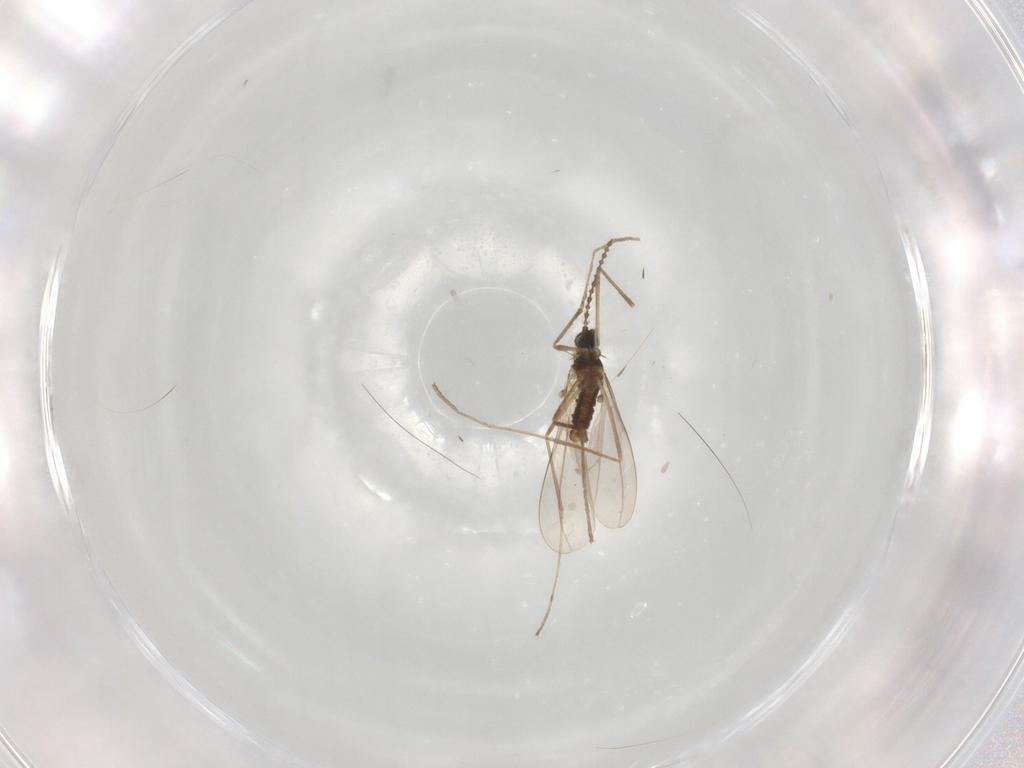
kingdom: Animalia
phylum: Arthropoda
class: Insecta
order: Diptera
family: Cecidomyiidae
